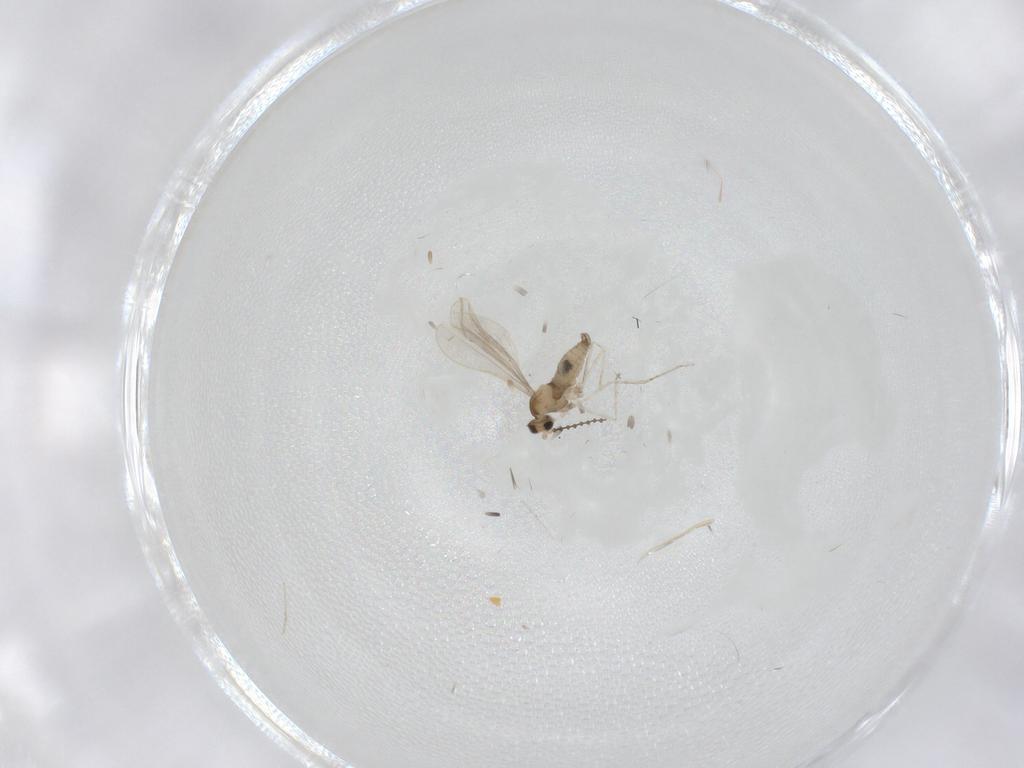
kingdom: Animalia
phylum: Arthropoda
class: Insecta
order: Diptera
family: Cecidomyiidae
